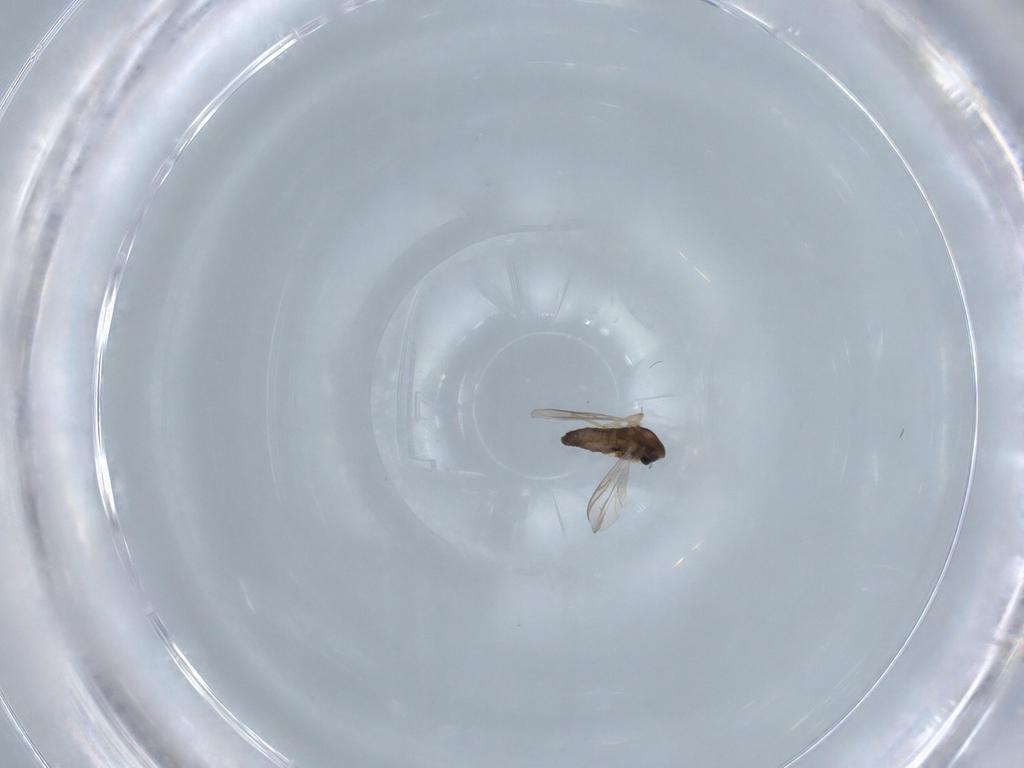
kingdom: Animalia
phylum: Arthropoda
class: Insecta
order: Diptera
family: Chironomidae
